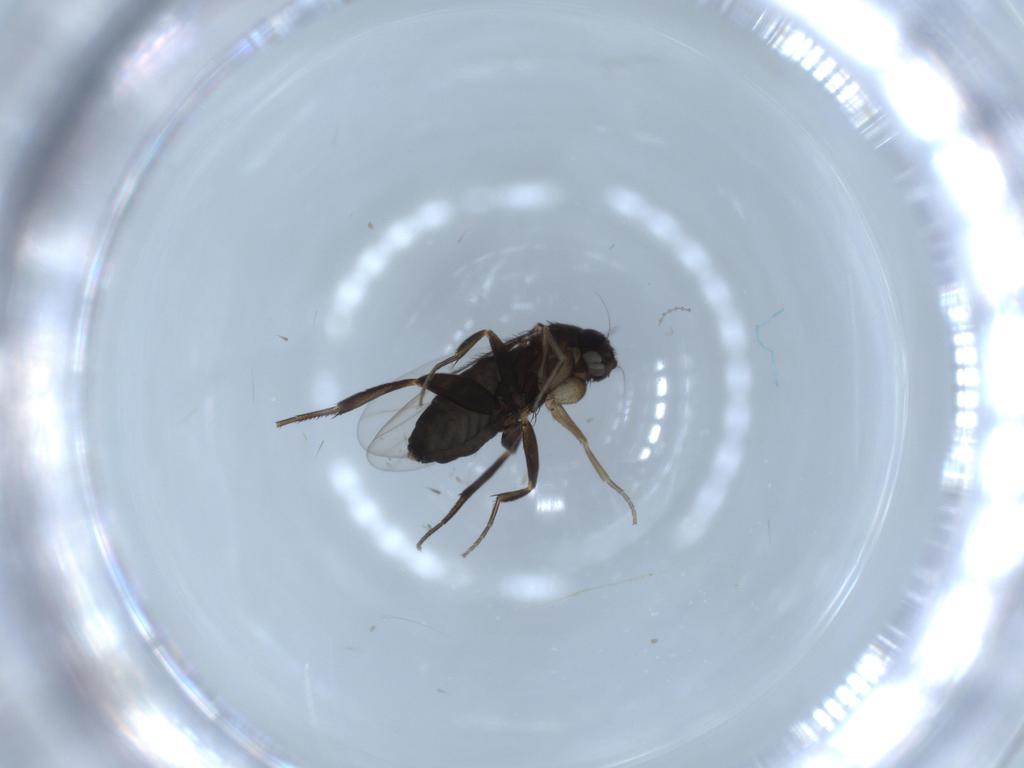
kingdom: Animalia
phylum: Arthropoda
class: Insecta
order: Diptera
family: Phoridae
